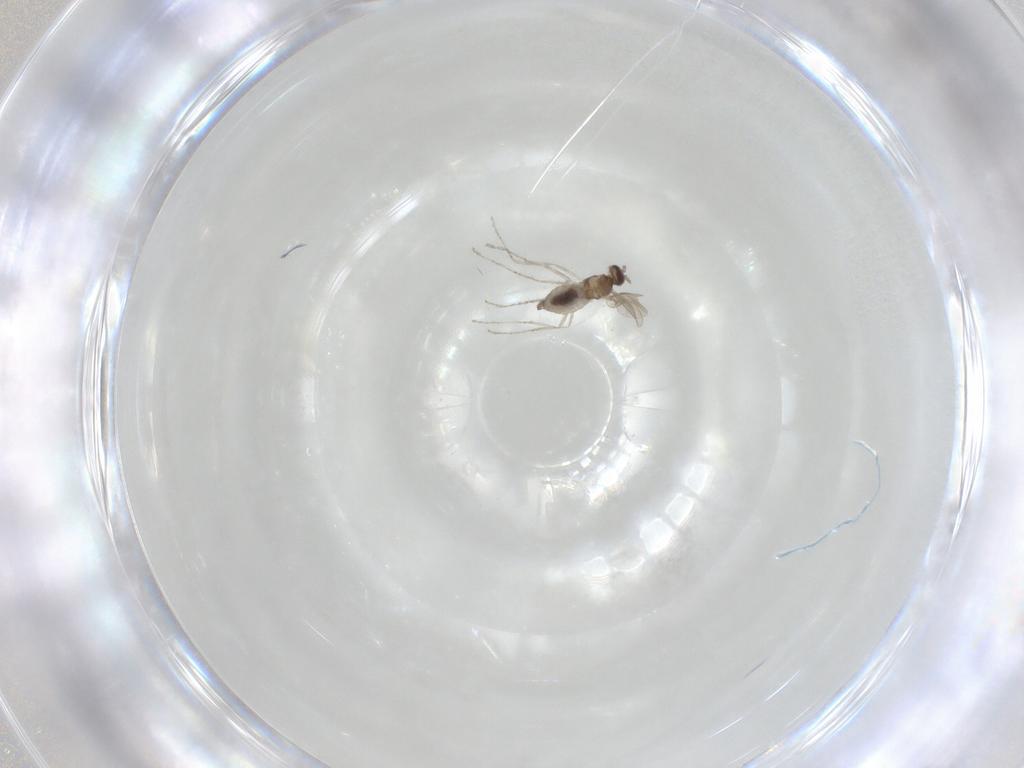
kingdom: Animalia
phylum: Arthropoda
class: Insecta
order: Diptera
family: Cecidomyiidae
